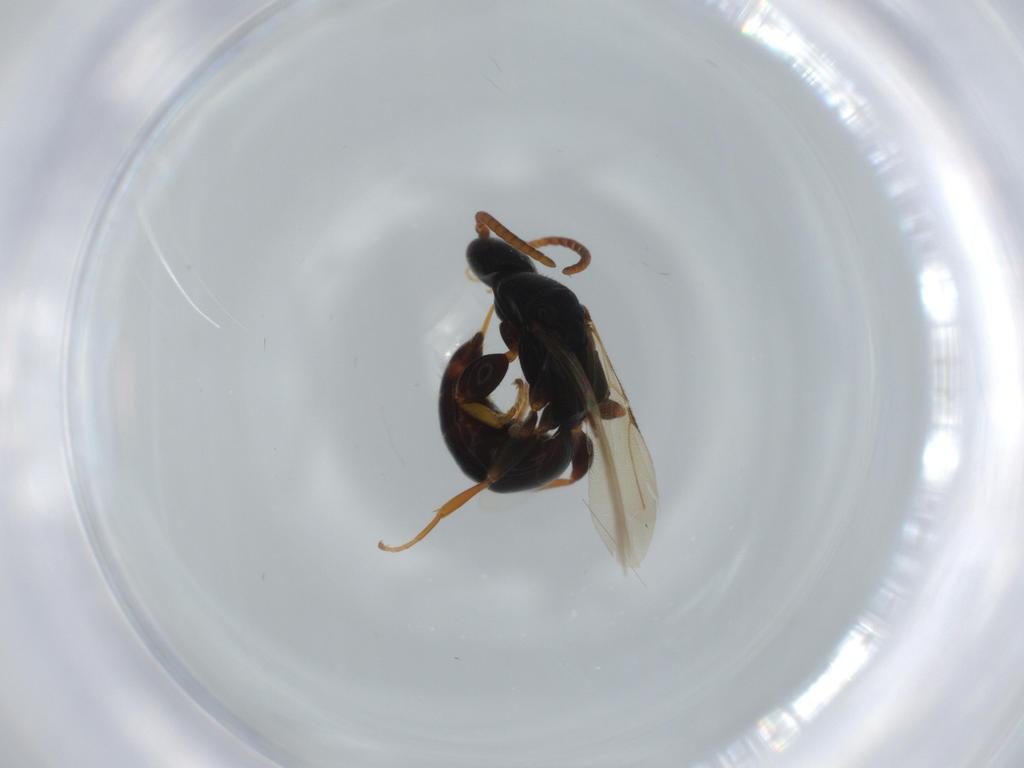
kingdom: Animalia
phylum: Arthropoda
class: Insecta
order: Hymenoptera
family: Bethylidae
